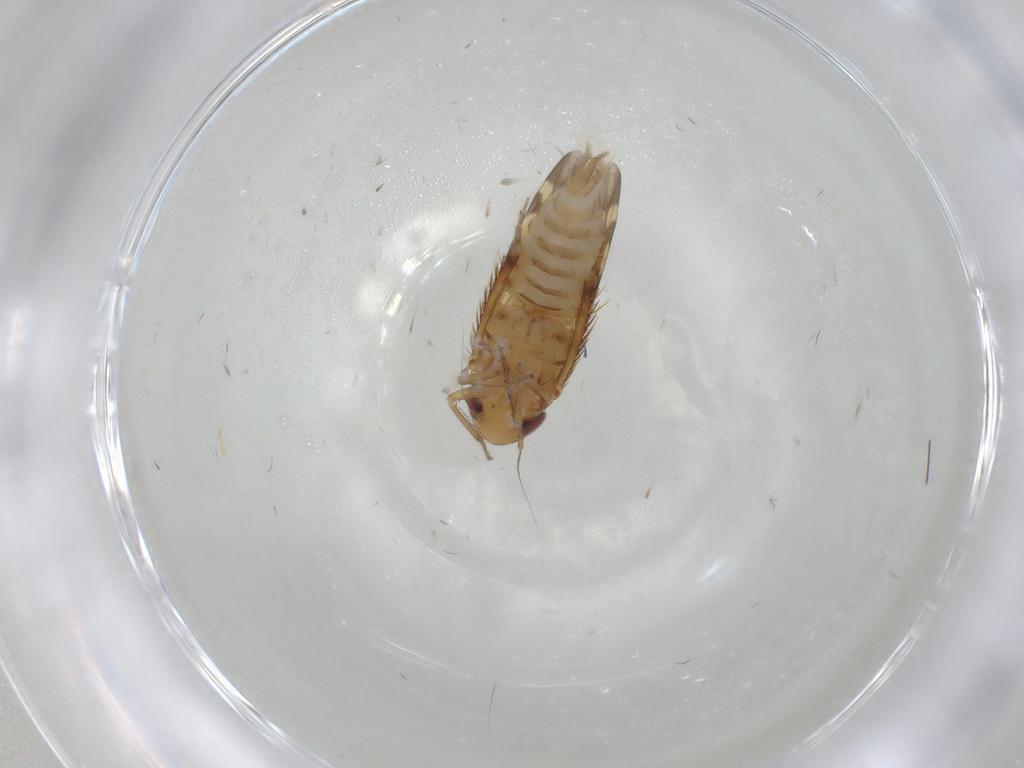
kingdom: Animalia
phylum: Arthropoda
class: Insecta
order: Hemiptera
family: Cicadellidae
